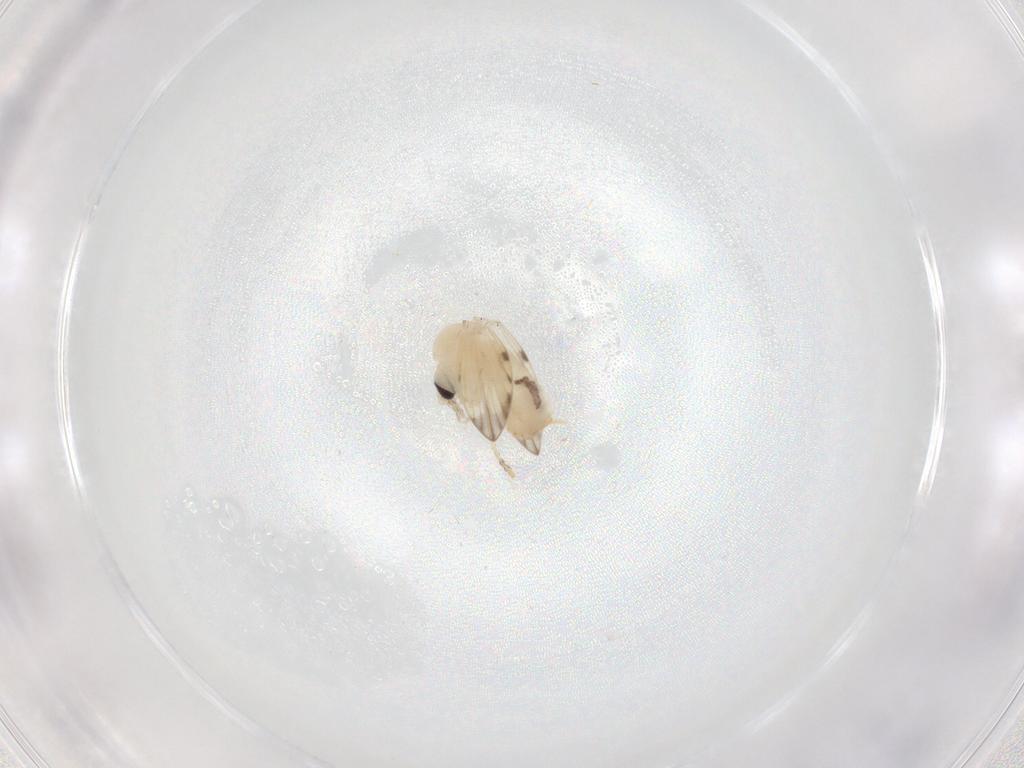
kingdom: Animalia
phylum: Arthropoda
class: Insecta
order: Diptera
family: Psychodidae
